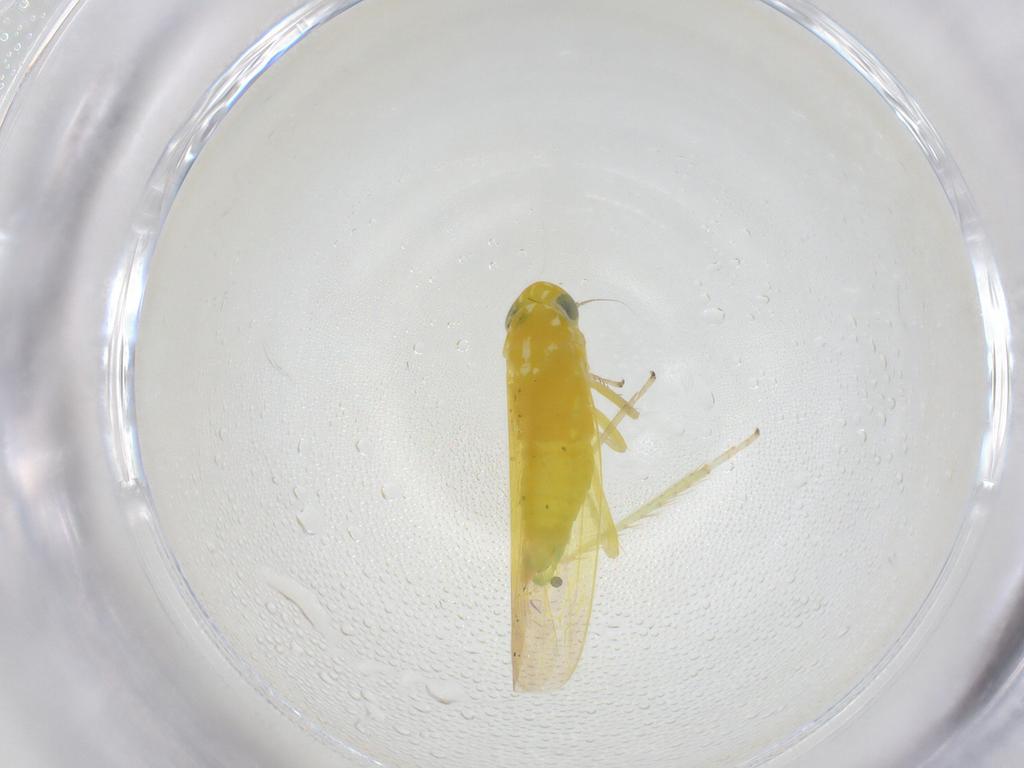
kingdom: Animalia
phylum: Arthropoda
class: Insecta
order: Hemiptera
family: Cicadellidae
